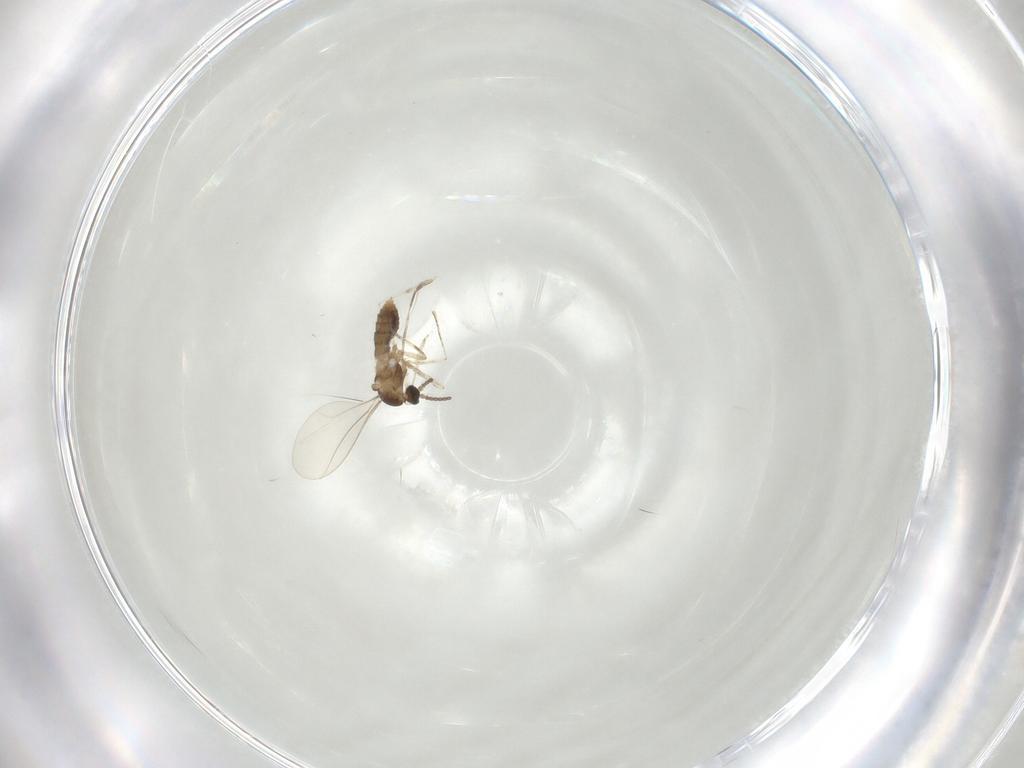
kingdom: Animalia
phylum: Arthropoda
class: Insecta
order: Diptera
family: Cecidomyiidae
